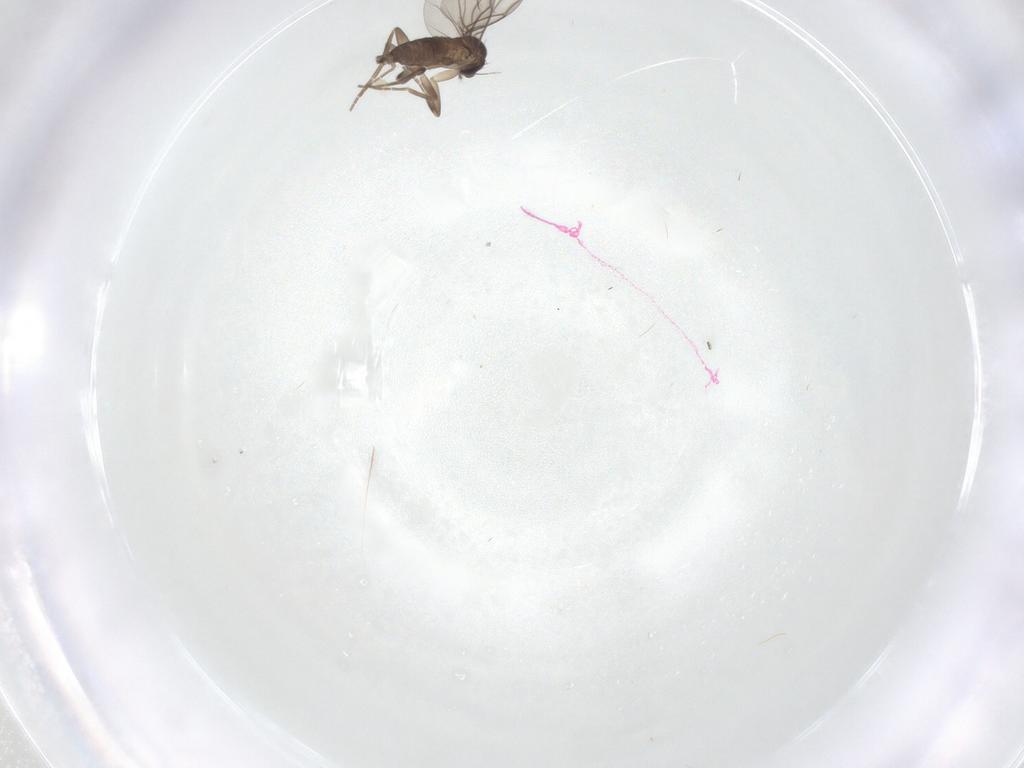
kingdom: Animalia
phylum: Arthropoda
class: Insecta
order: Diptera
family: Phoridae
